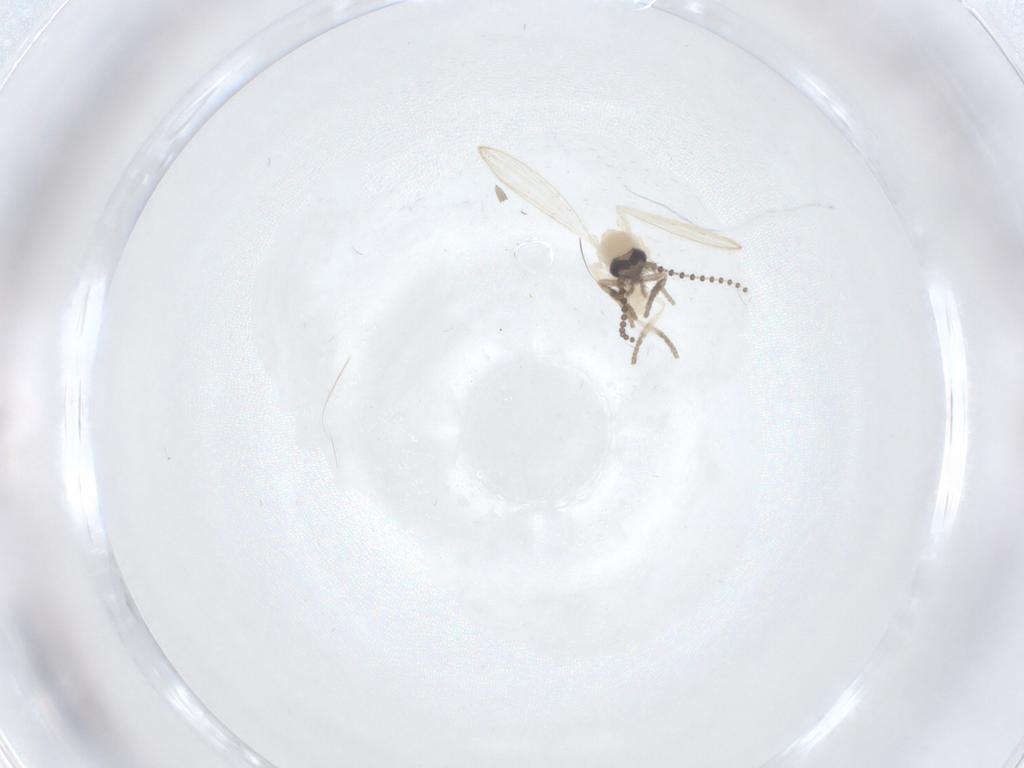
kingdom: Animalia
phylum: Arthropoda
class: Insecta
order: Diptera
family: Psychodidae
